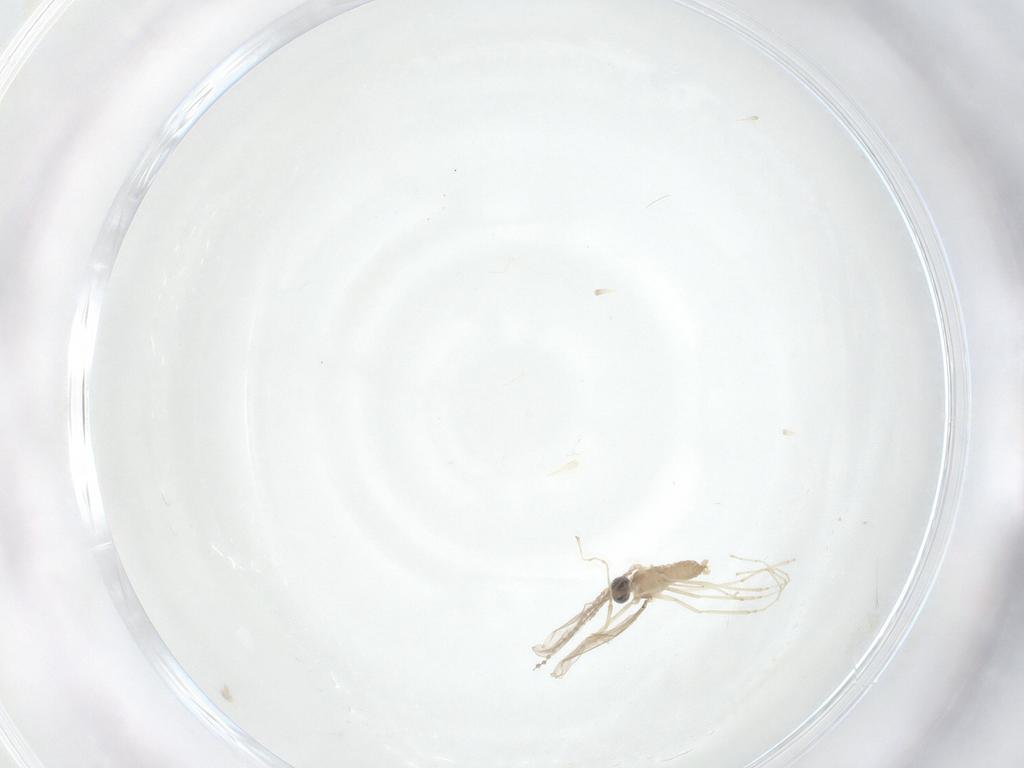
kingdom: Animalia
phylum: Arthropoda
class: Insecta
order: Diptera
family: Cecidomyiidae
